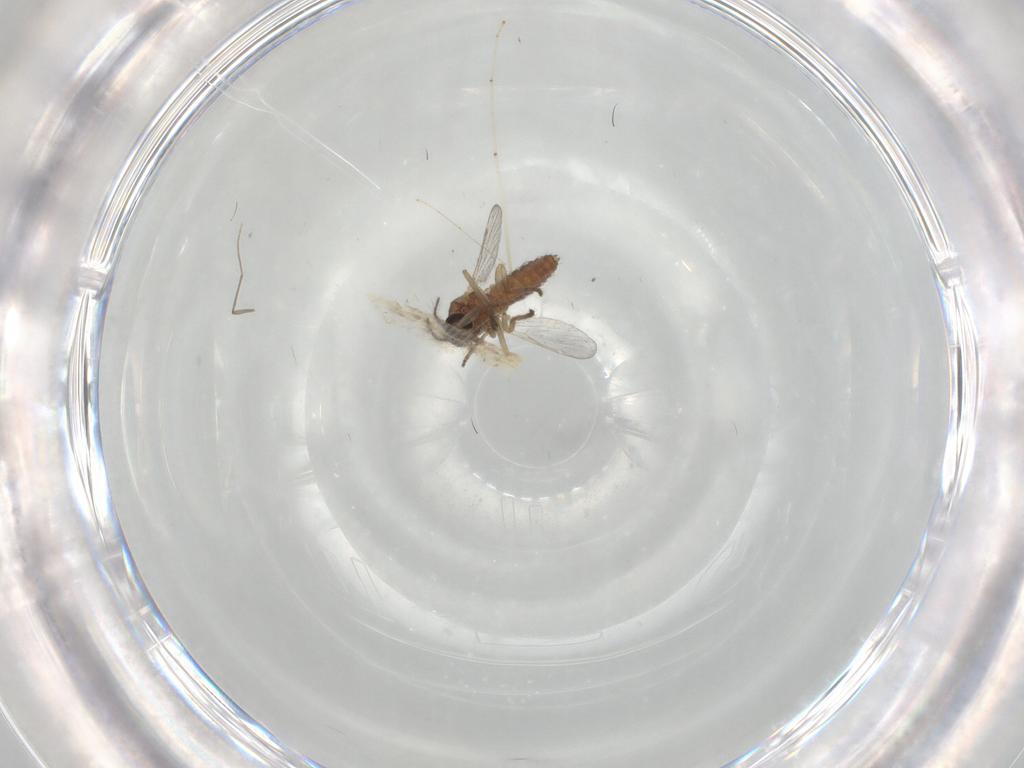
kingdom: Animalia
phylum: Arthropoda
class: Insecta
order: Diptera
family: Chironomidae
